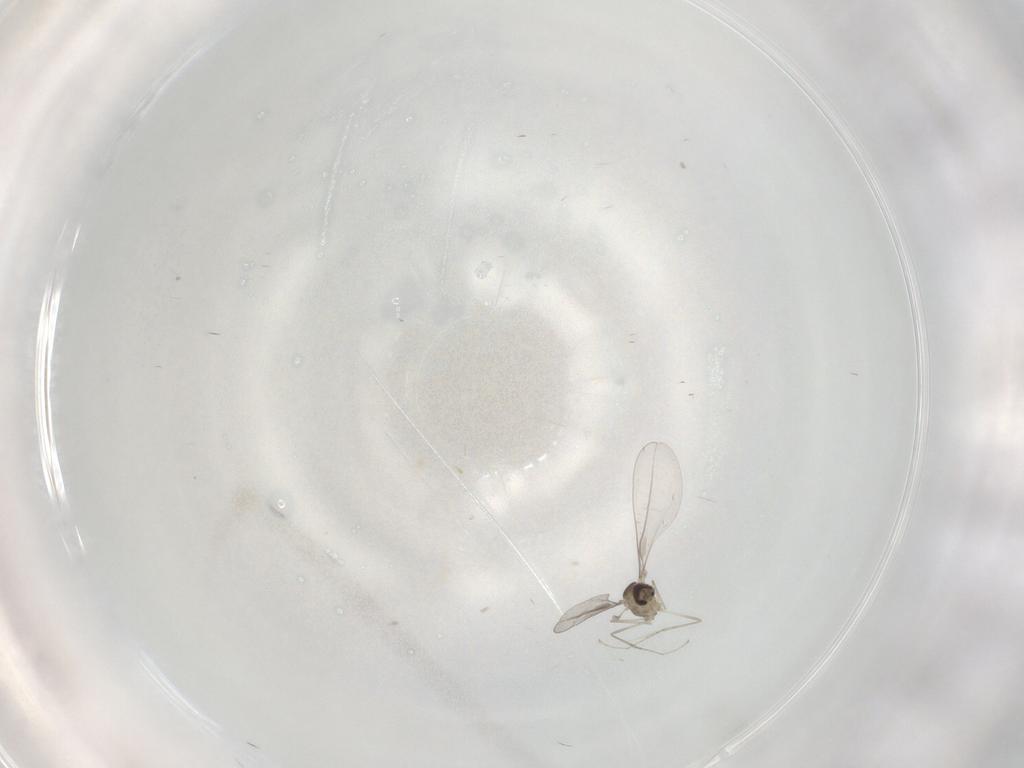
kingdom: Animalia
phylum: Arthropoda
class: Insecta
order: Diptera
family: Cecidomyiidae
